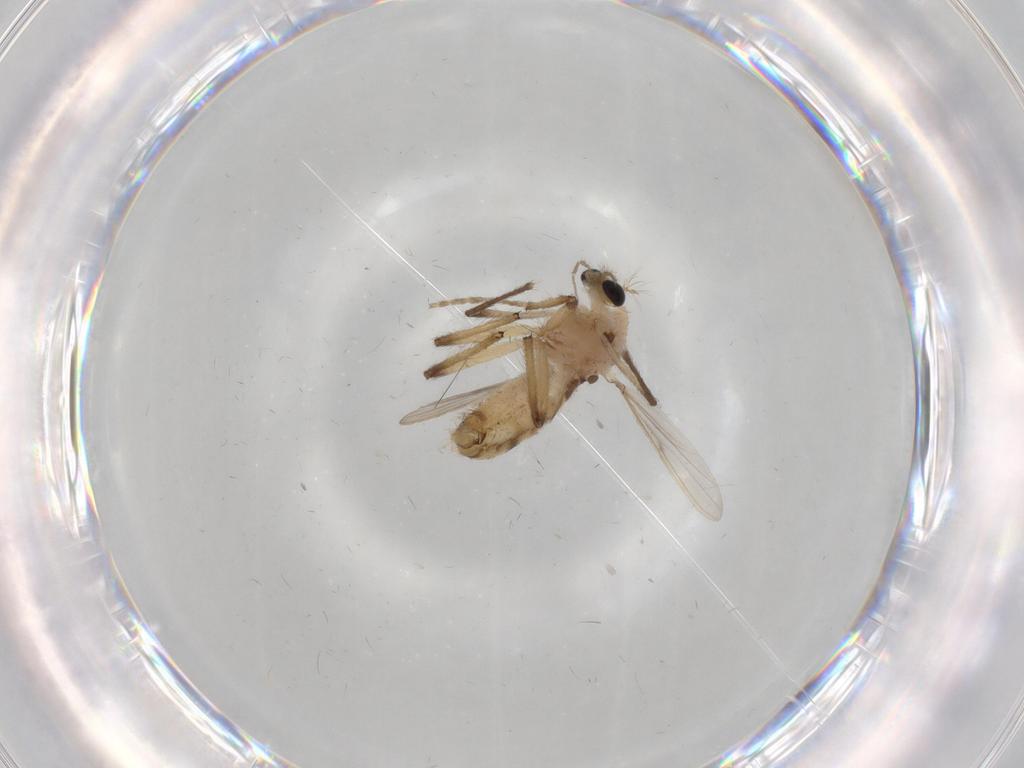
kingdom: Animalia
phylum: Arthropoda
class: Insecta
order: Diptera
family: Chironomidae
